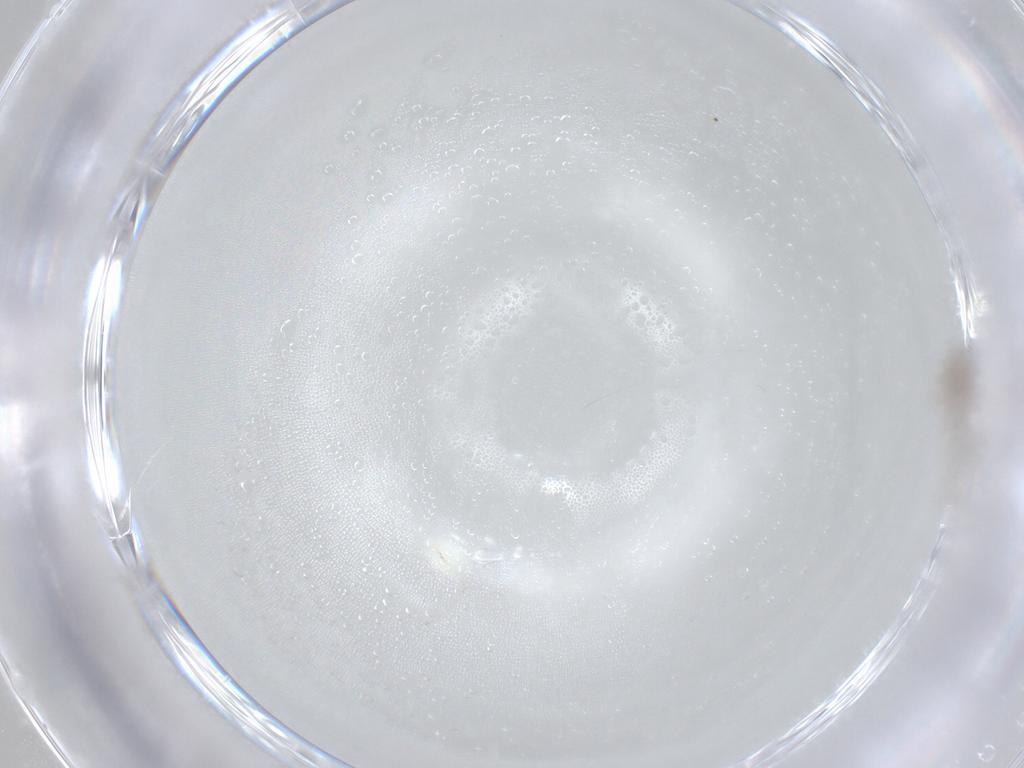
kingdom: Animalia
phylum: Arthropoda
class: Insecta
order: Diptera
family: Cecidomyiidae
